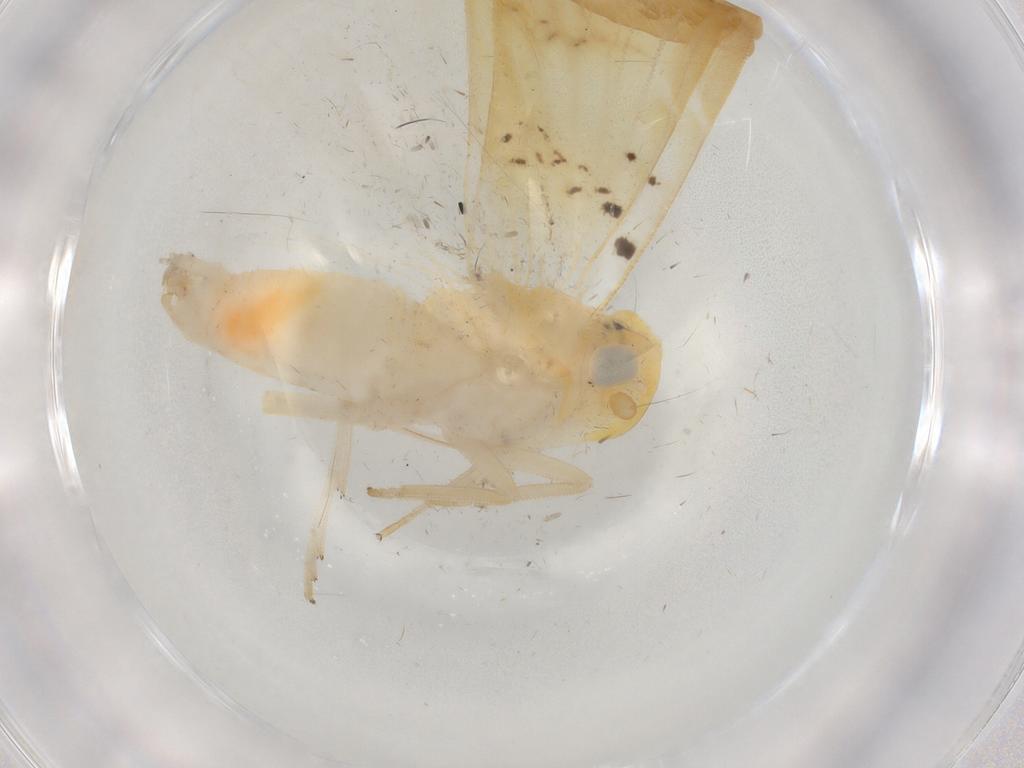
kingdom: Animalia
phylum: Arthropoda
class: Insecta
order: Hemiptera
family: Cixiidae
